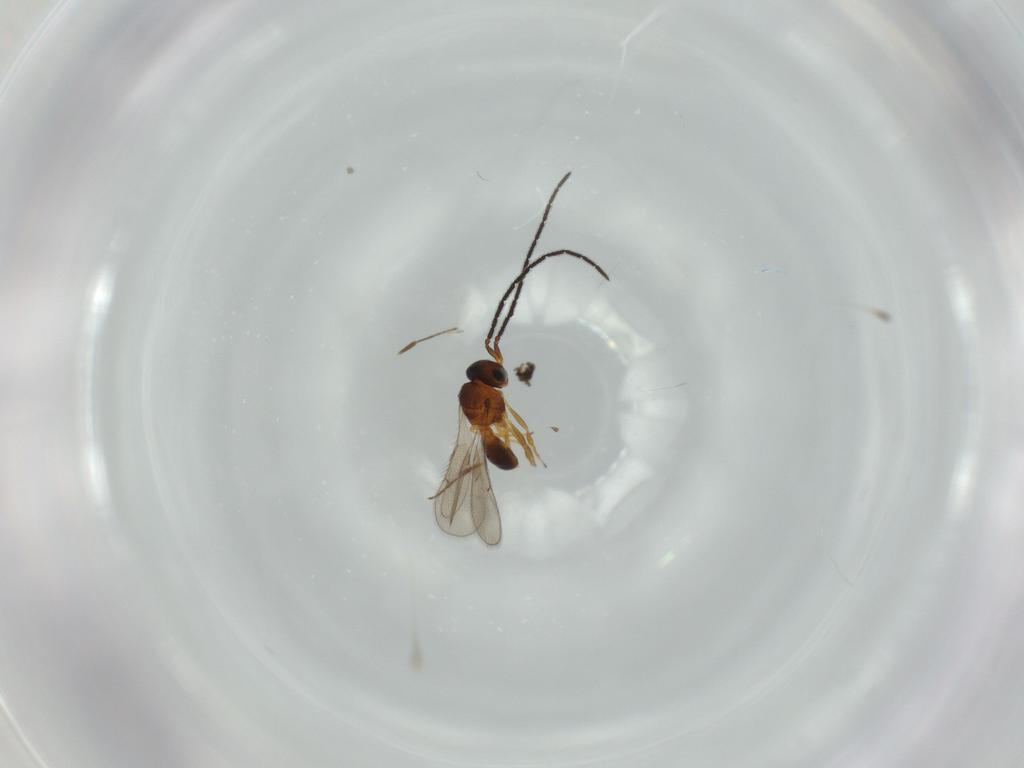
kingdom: Animalia
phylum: Arthropoda
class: Insecta
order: Hymenoptera
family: Scelionidae
